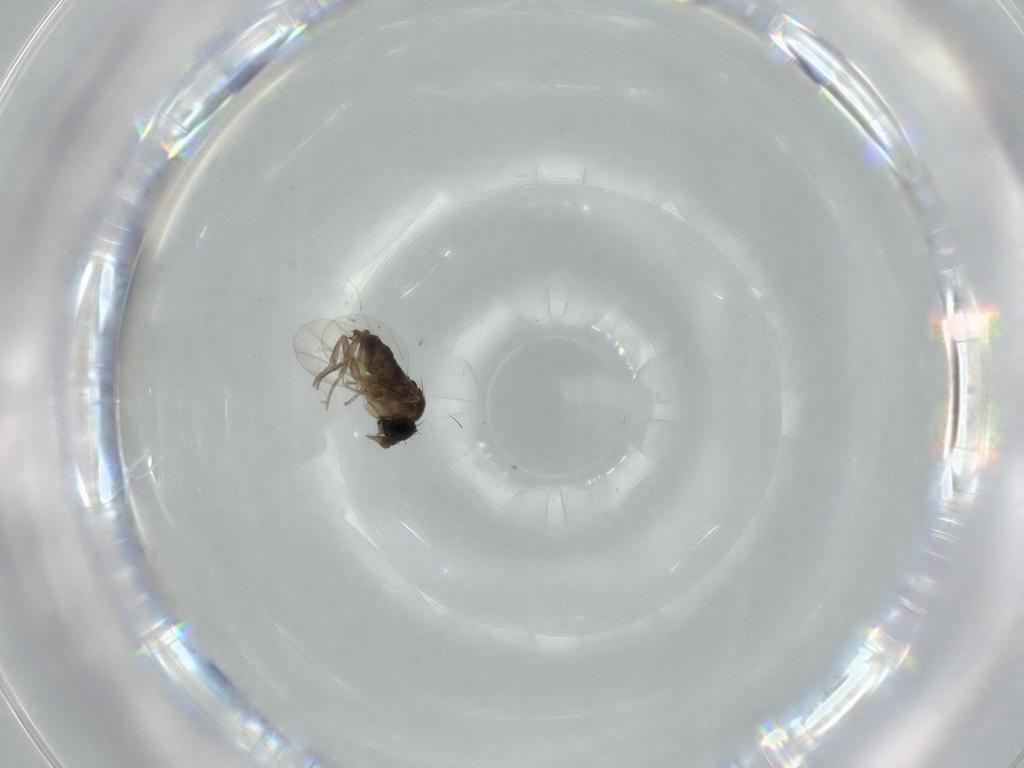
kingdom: Animalia
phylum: Arthropoda
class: Insecta
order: Diptera
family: Phoridae
